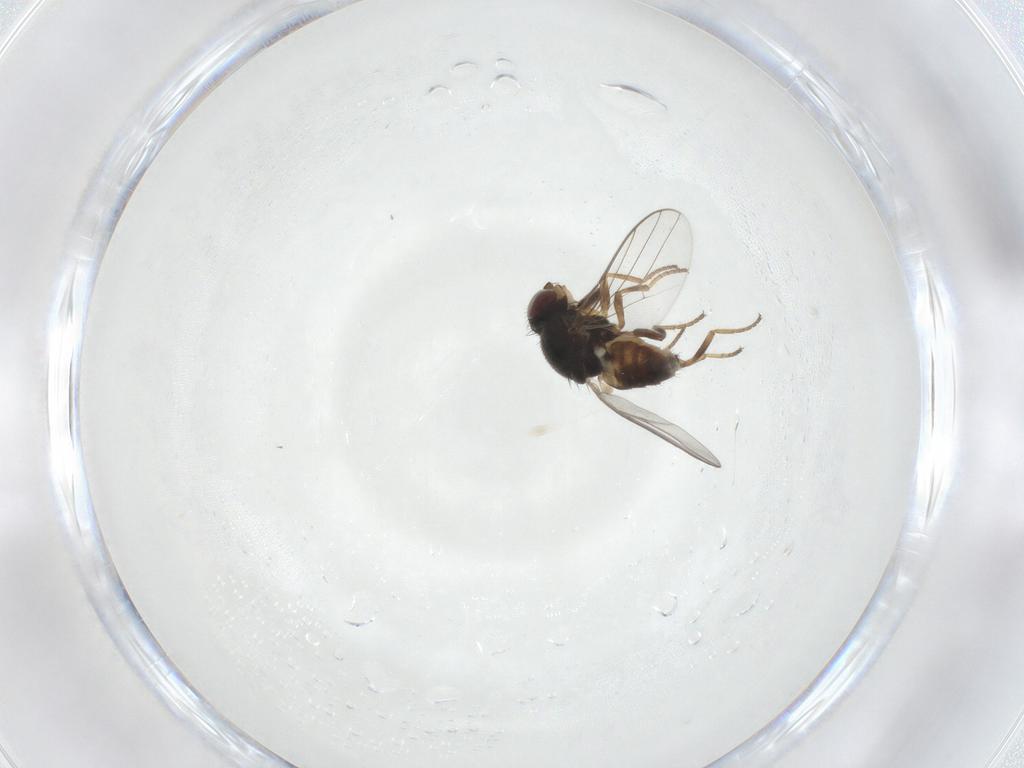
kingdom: Animalia
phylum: Arthropoda
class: Insecta
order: Diptera
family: Chloropidae
